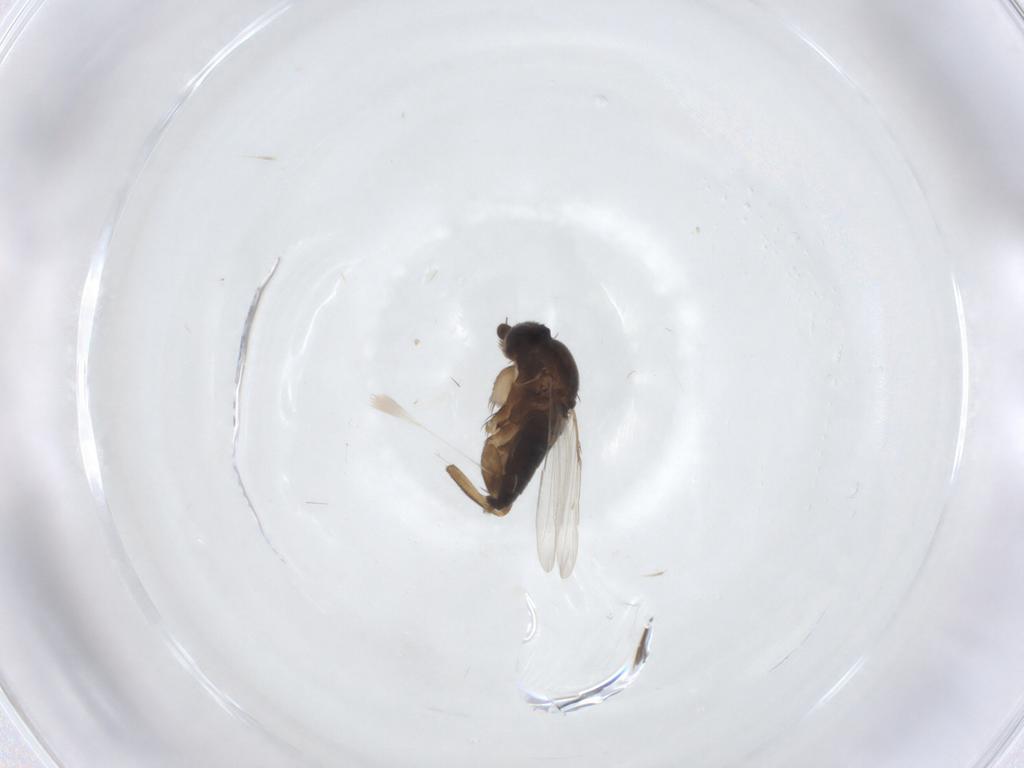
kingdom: Animalia
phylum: Arthropoda
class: Insecta
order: Diptera
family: Phoridae
